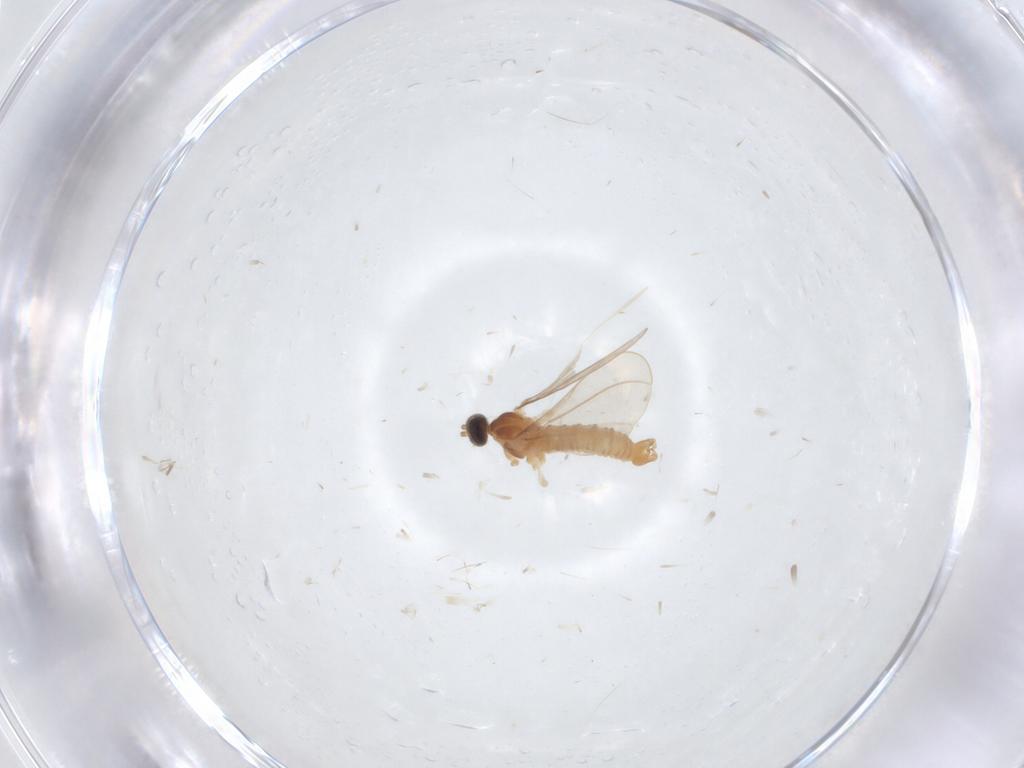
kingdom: Animalia
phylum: Arthropoda
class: Insecta
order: Diptera
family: Cecidomyiidae
